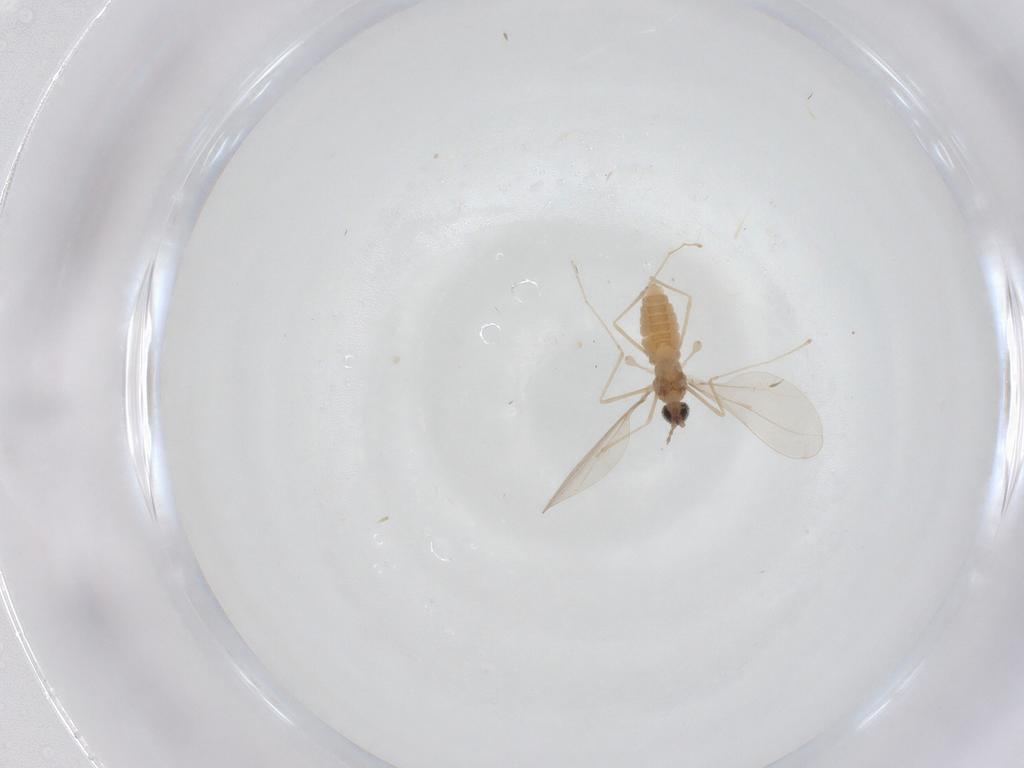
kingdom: Animalia
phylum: Arthropoda
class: Insecta
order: Diptera
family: Cecidomyiidae
